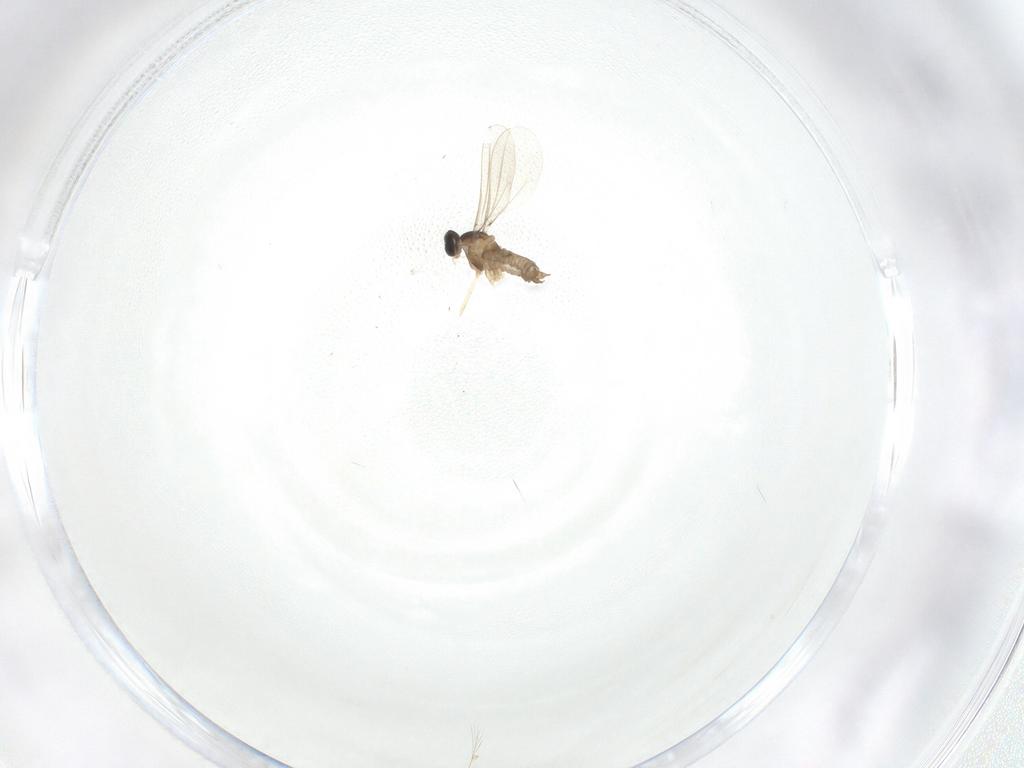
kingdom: Animalia
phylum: Arthropoda
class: Insecta
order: Diptera
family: Cecidomyiidae
